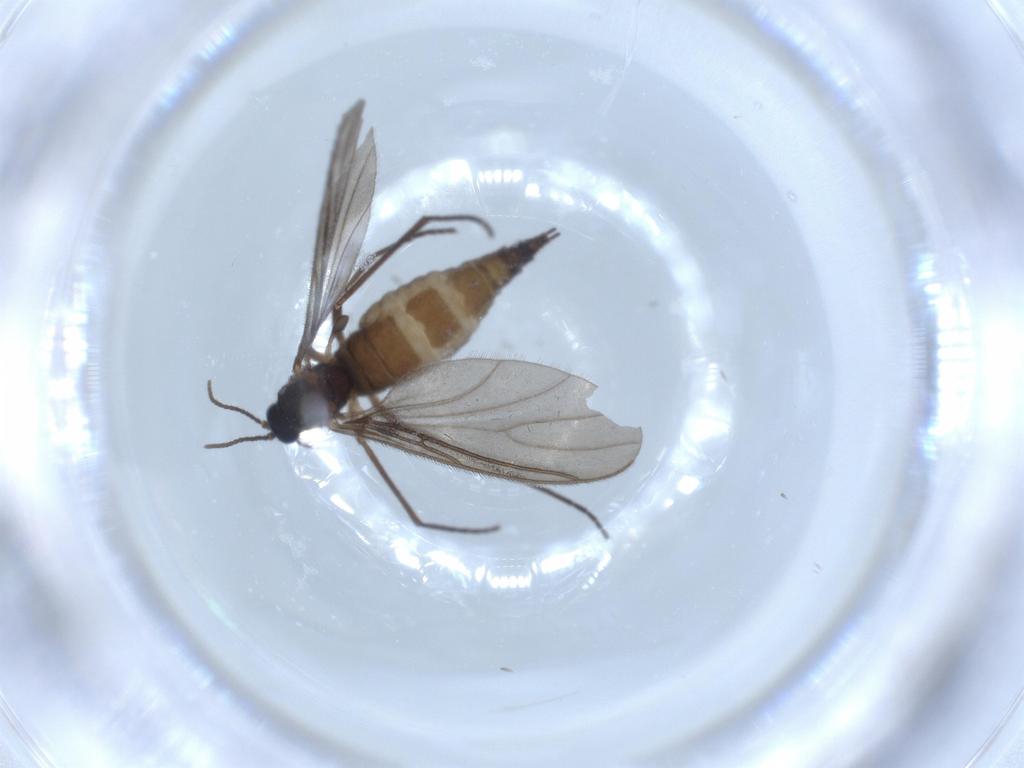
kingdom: Animalia
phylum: Arthropoda
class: Insecta
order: Diptera
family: Sciaridae
